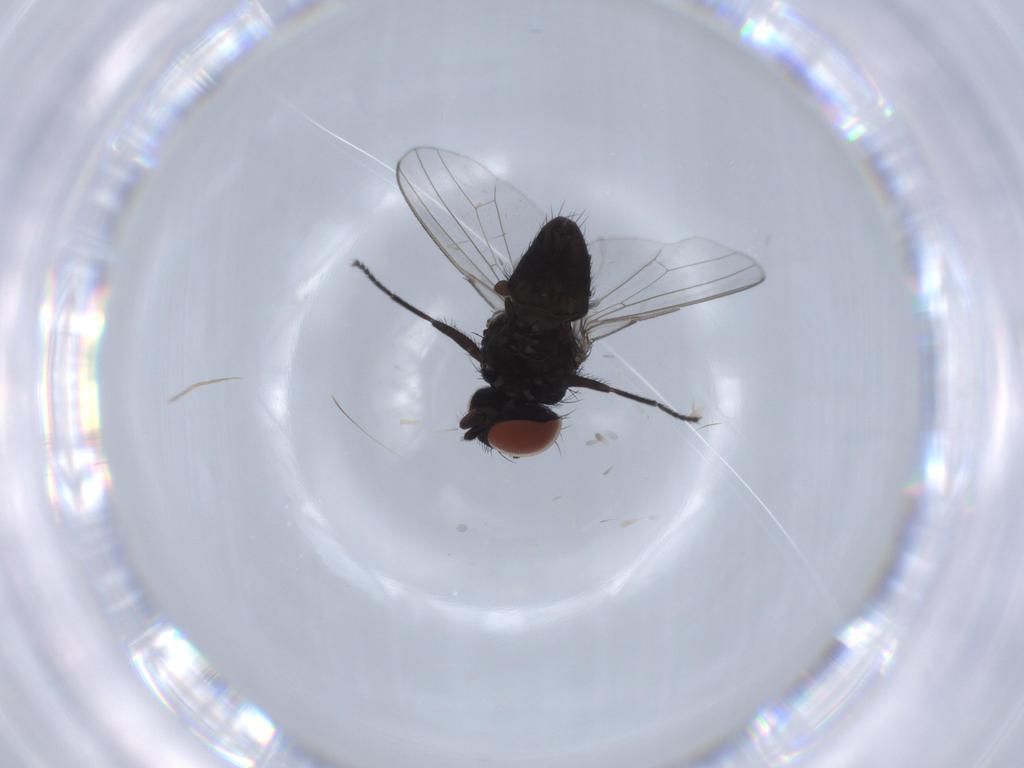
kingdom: Animalia
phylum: Arthropoda
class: Insecta
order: Diptera
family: Milichiidae
